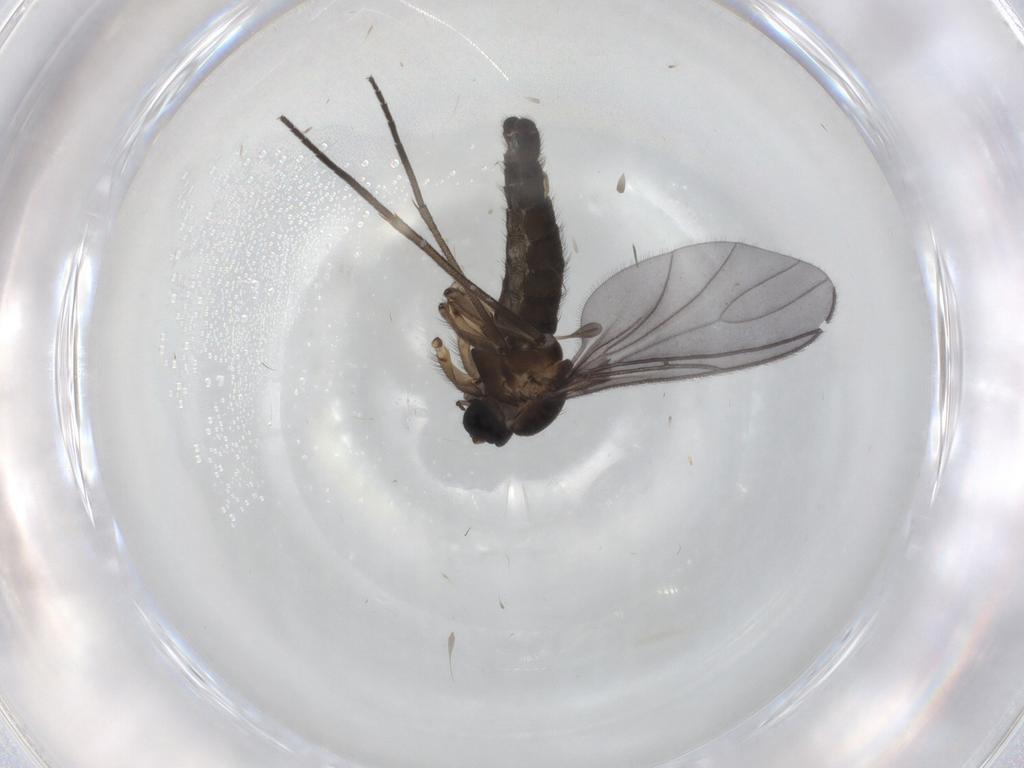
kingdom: Animalia
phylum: Arthropoda
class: Insecta
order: Diptera
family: Sciaridae
